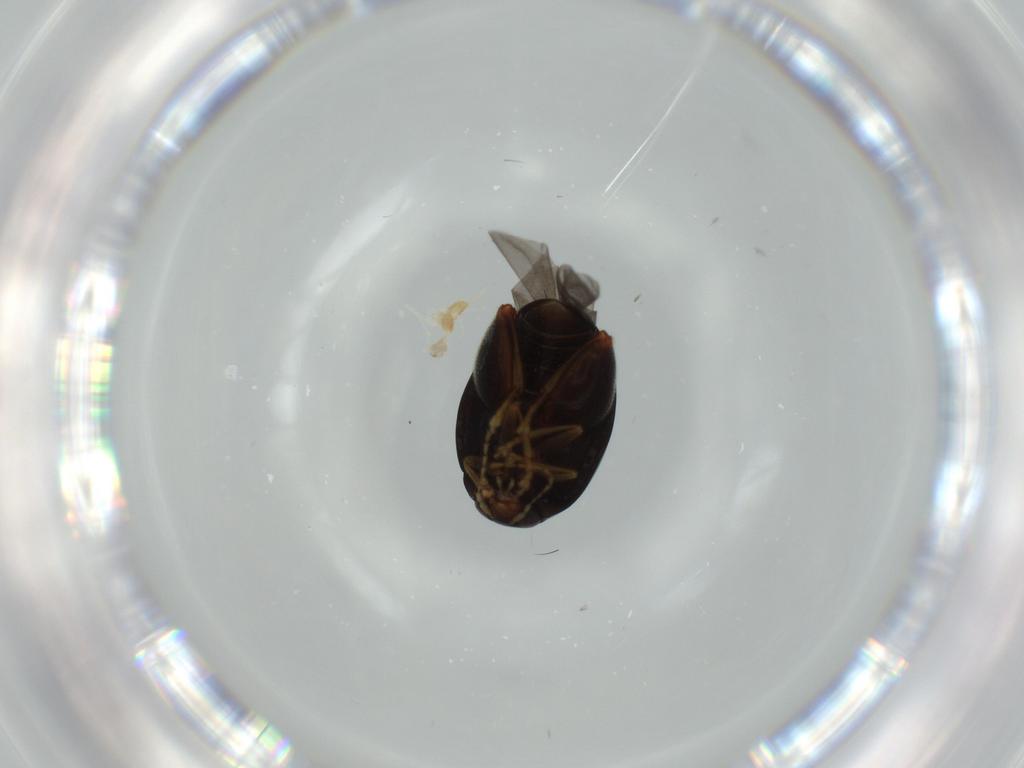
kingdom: Animalia
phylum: Arthropoda
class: Insecta
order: Coleoptera
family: Chrysomelidae
